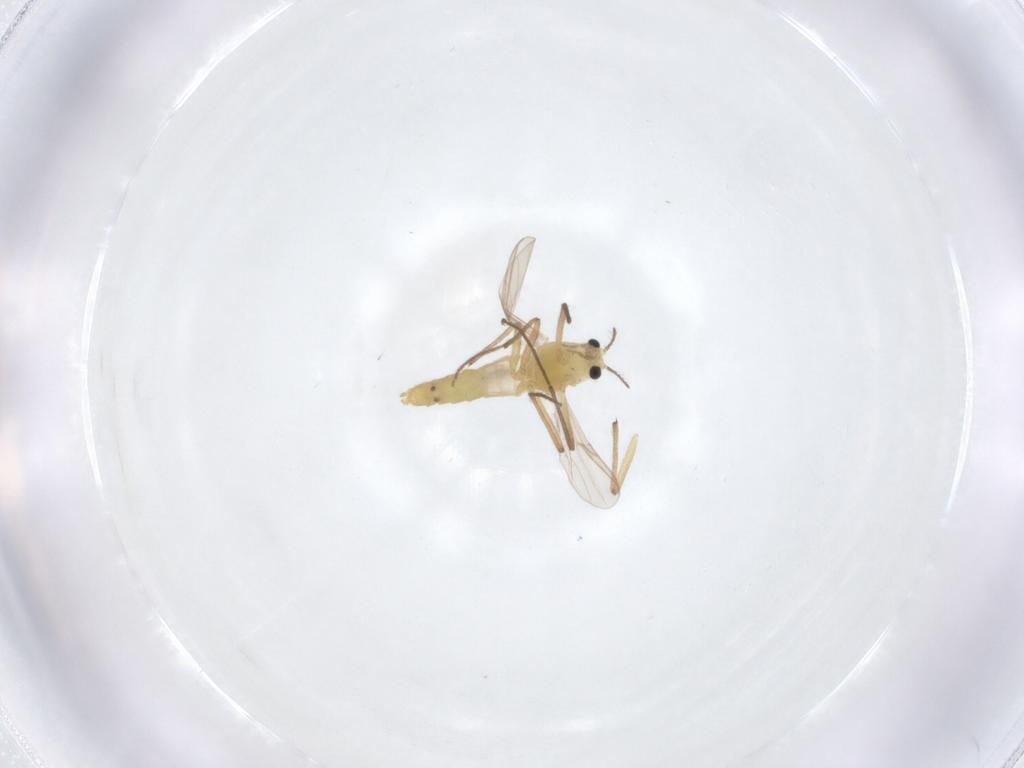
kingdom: Animalia
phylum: Arthropoda
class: Insecta
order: Diptera
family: Chironomidae
